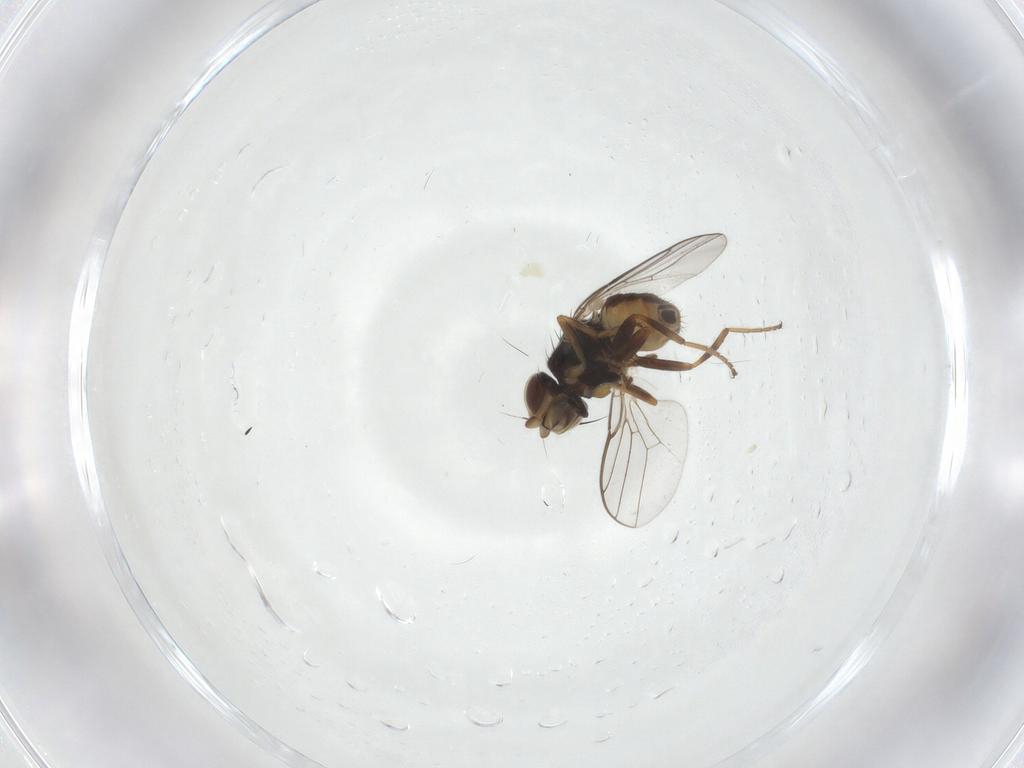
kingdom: Animalia
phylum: Arthropoda
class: Insecta
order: Diptera
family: Chloropidae
